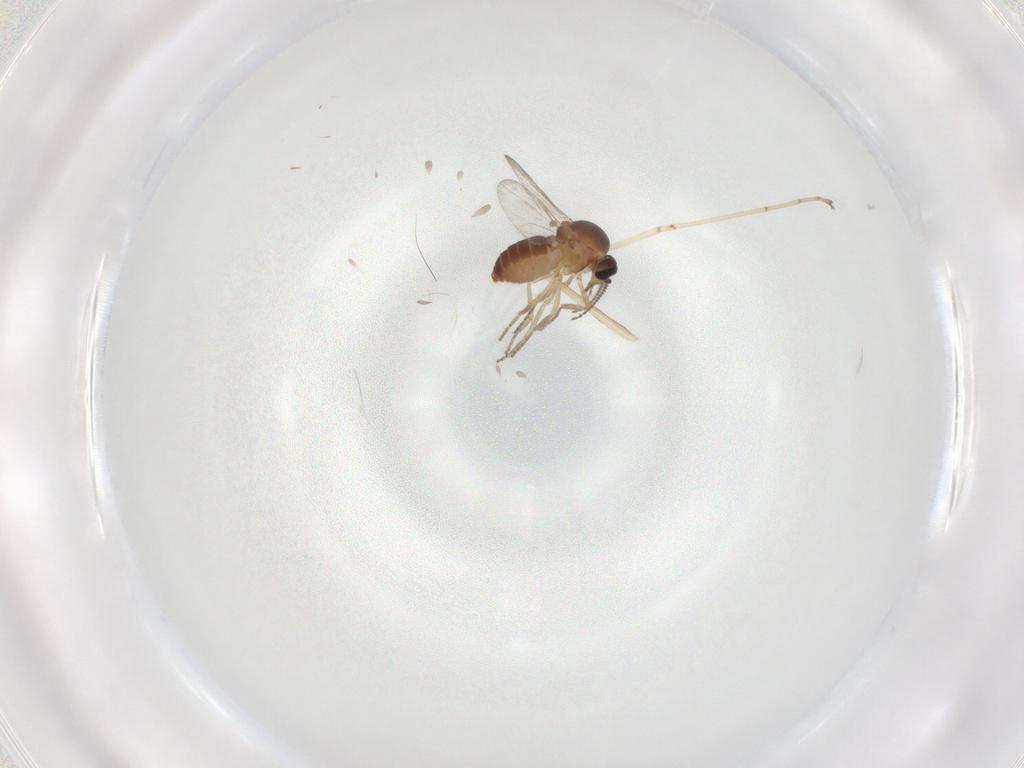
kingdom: Animalia
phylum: Arthropoda
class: Insecta
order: Diptera
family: Ceratopogonidae
